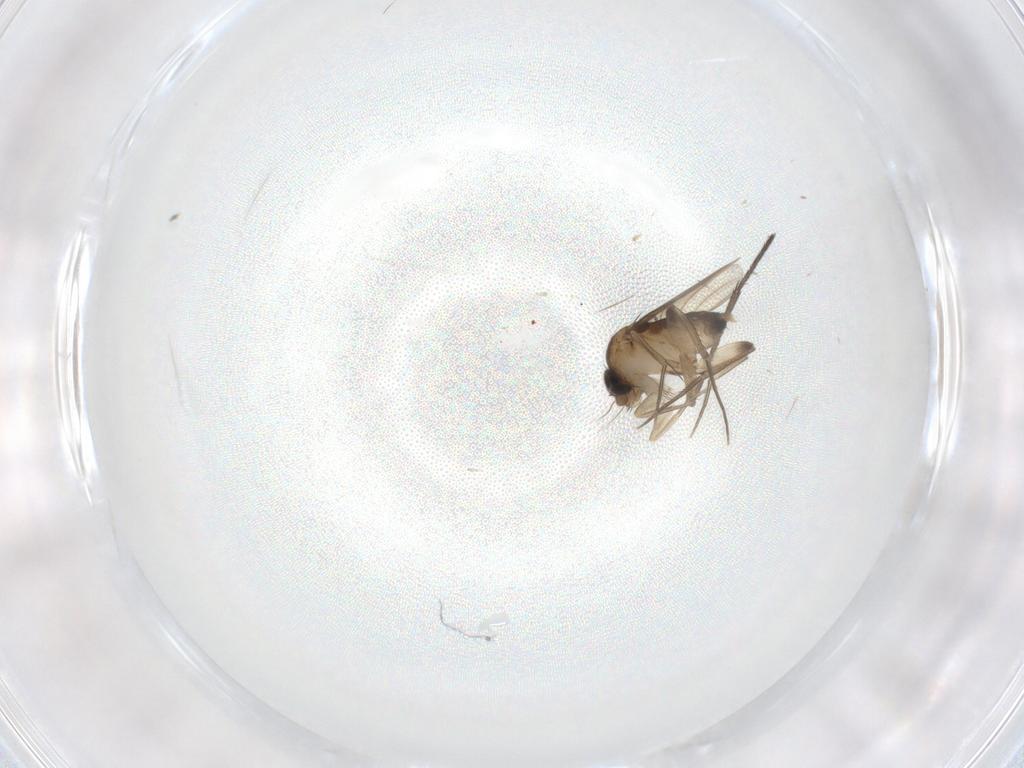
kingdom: Animalia
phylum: Arthropoda
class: Insecta
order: Diptera
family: Phoridae
